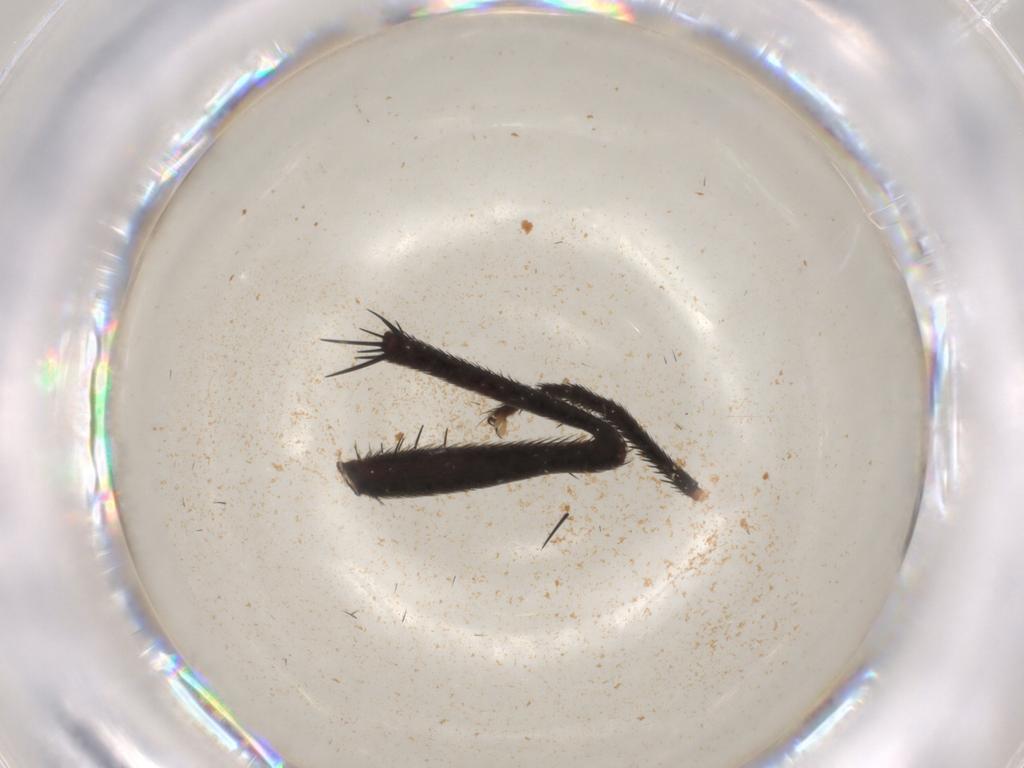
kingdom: Animalia
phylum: Arthropoda
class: Insecta
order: Diptera
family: Muscidae
